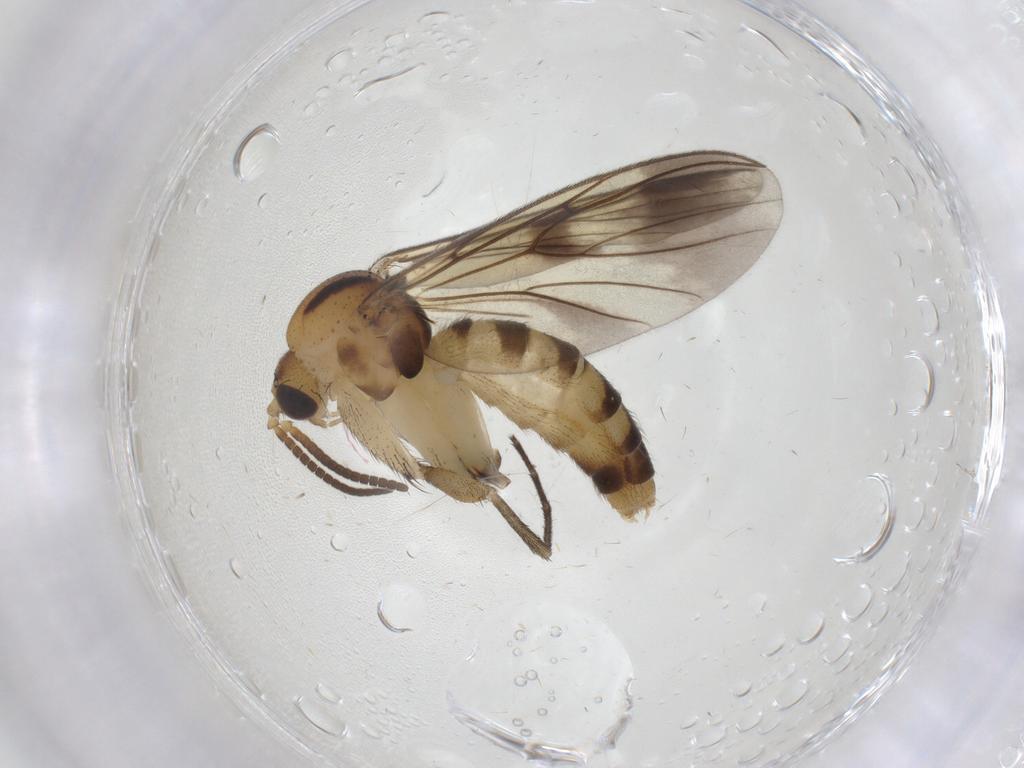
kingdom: Animalia
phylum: Arthropoda
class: Insecta
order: Diptera
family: Mycetophilidae
